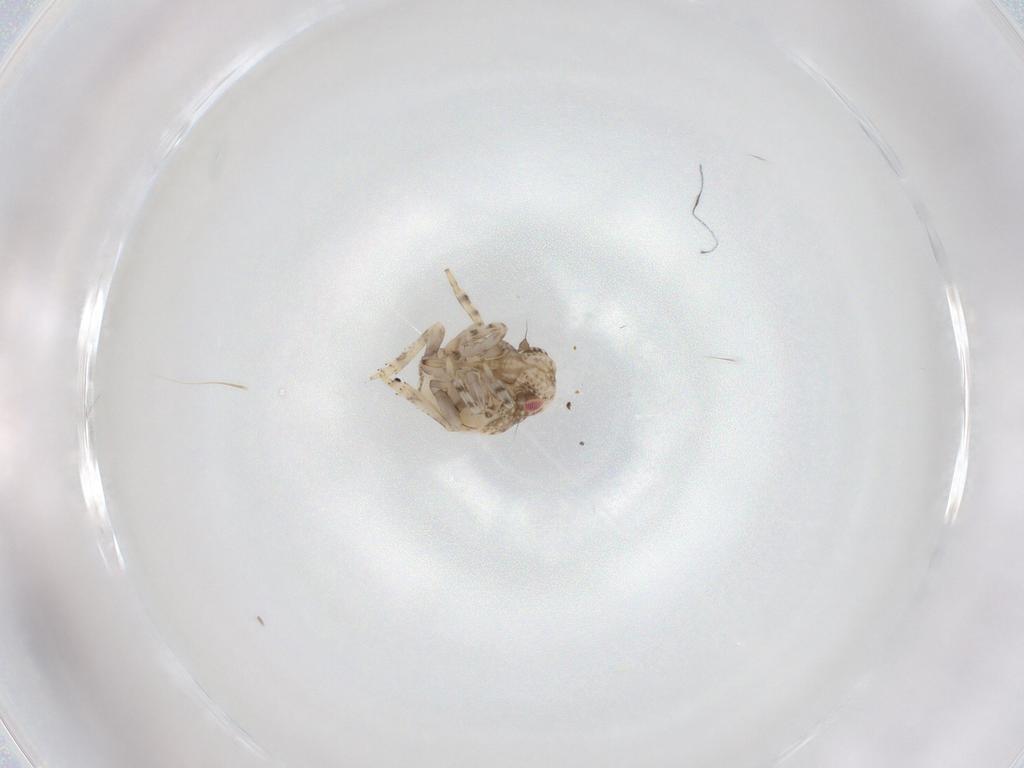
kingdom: Animalia
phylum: Arthropoda
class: Insecta
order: Hemiptera
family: Acanaloniidae
